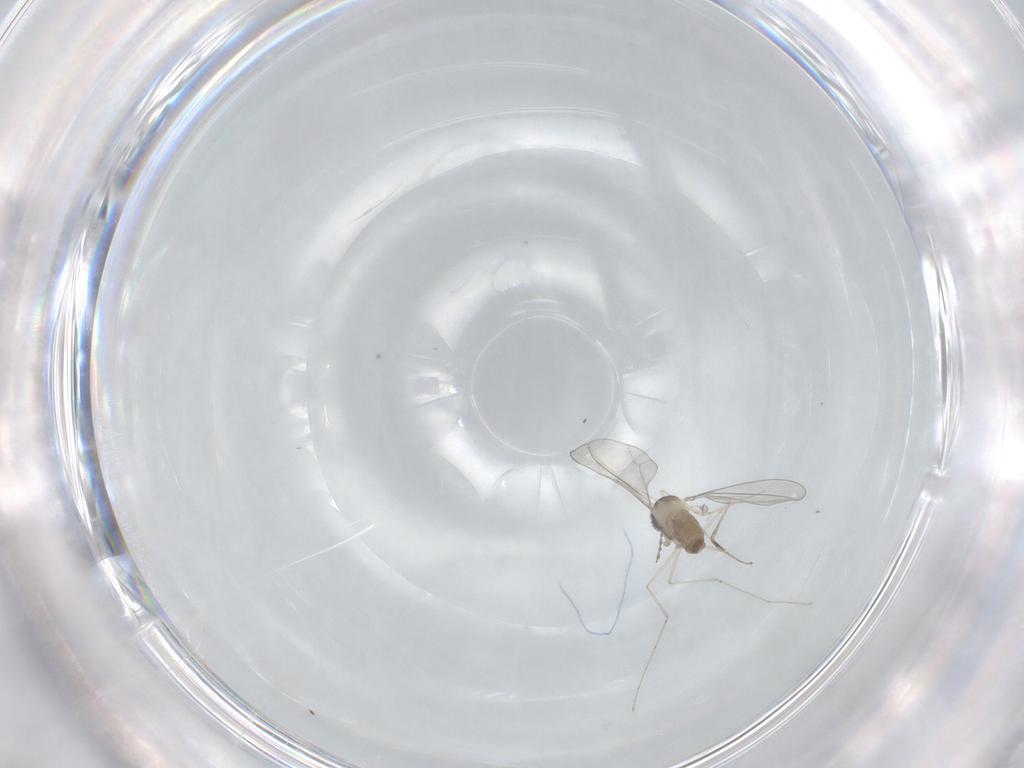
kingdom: Animalia
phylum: Arthropoda
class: Insecta
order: Diptera
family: Cecidomyiidae
